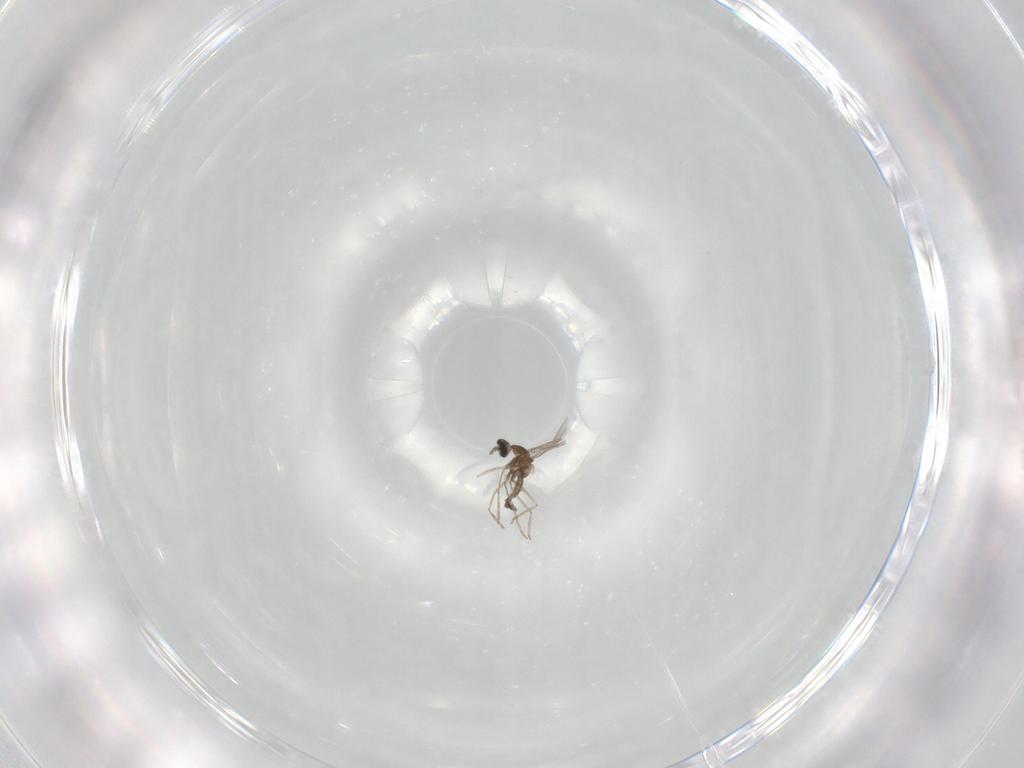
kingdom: Animalia
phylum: Arthropoda
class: Insecta
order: Diptera
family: Cecidomyiidae
